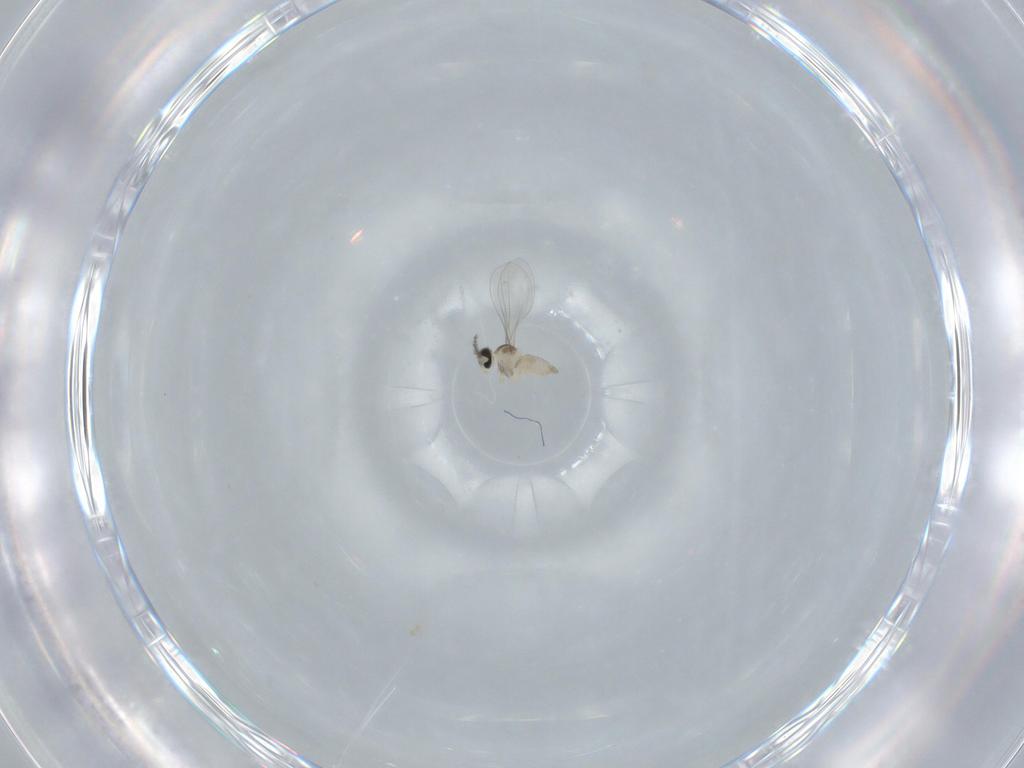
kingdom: Animalia
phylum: Arthropoda
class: Insecta
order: Diptera
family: Cecidomyiidae
